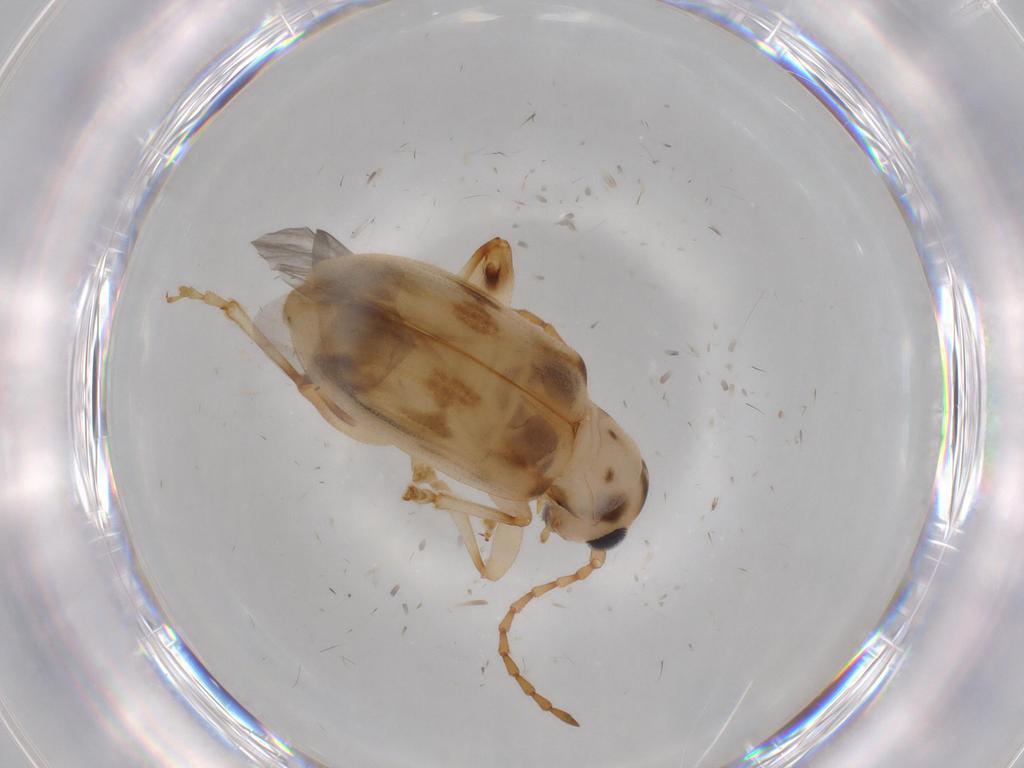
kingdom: Animalia
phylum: Arthropoda
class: Insecta
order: Coleoptera
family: Chrysomelidae
